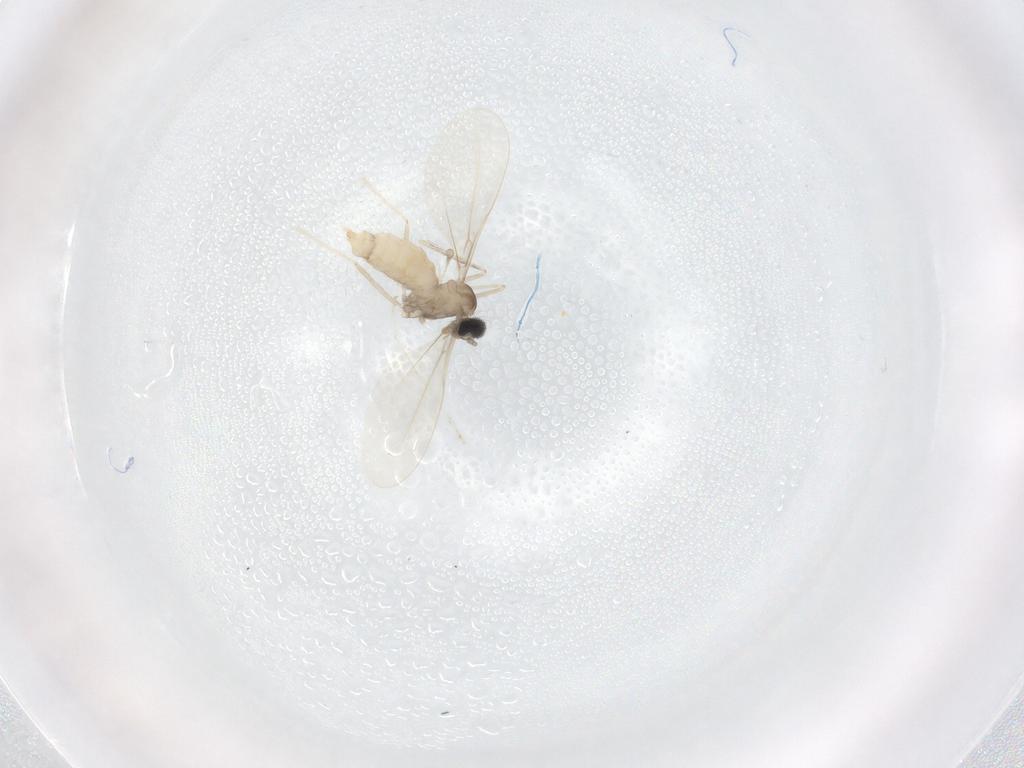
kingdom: Animalia
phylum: Arthropoda
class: Insecta
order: Diptera
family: Cecidomyiidae
